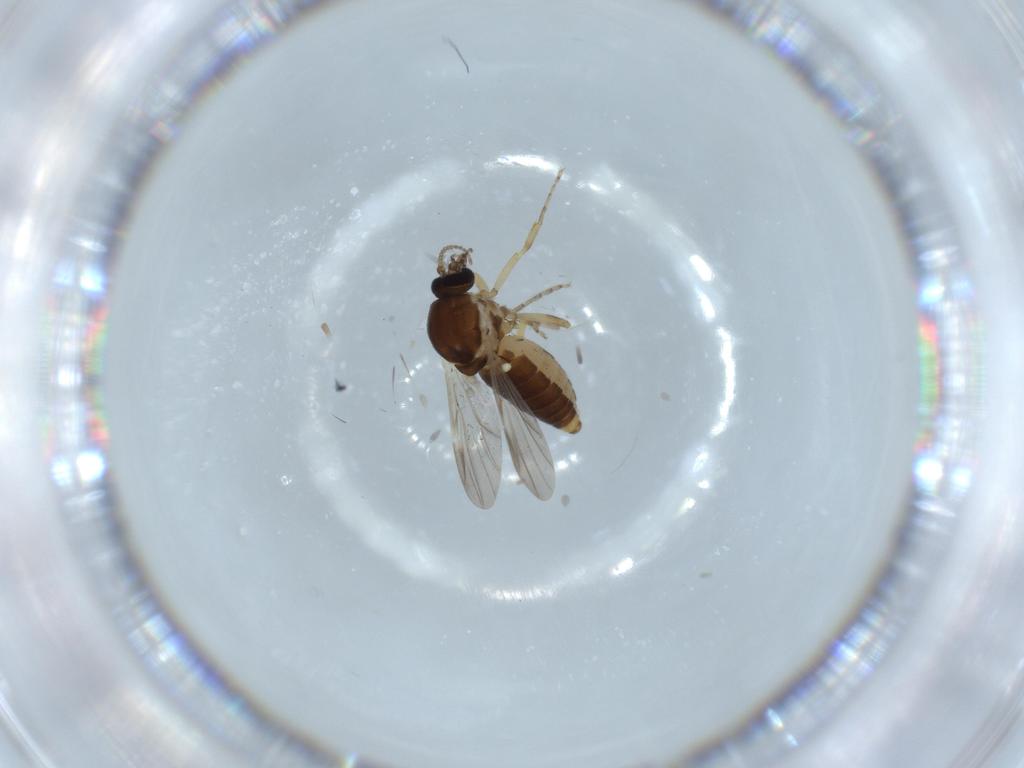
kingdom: Animalia
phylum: Arthropoda
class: Insecta
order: Diptera
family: Ceratopogonidae
